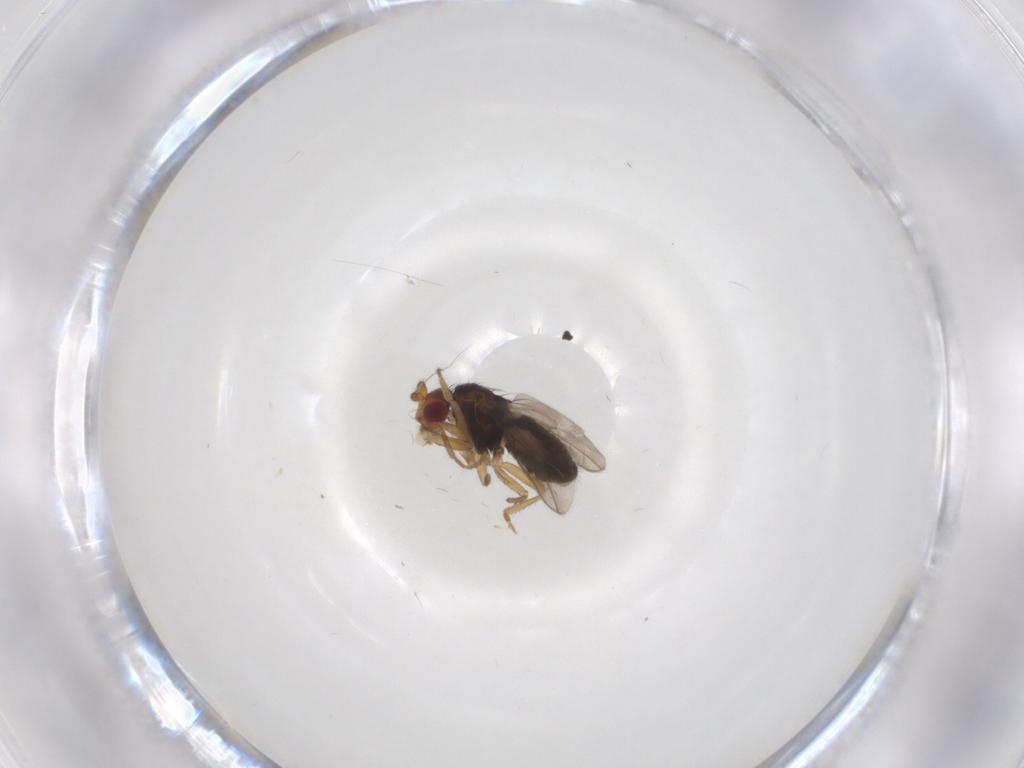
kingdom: Animalia
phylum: Arthropoda
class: Insecta
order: Diptera
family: Sphaeroceridae
